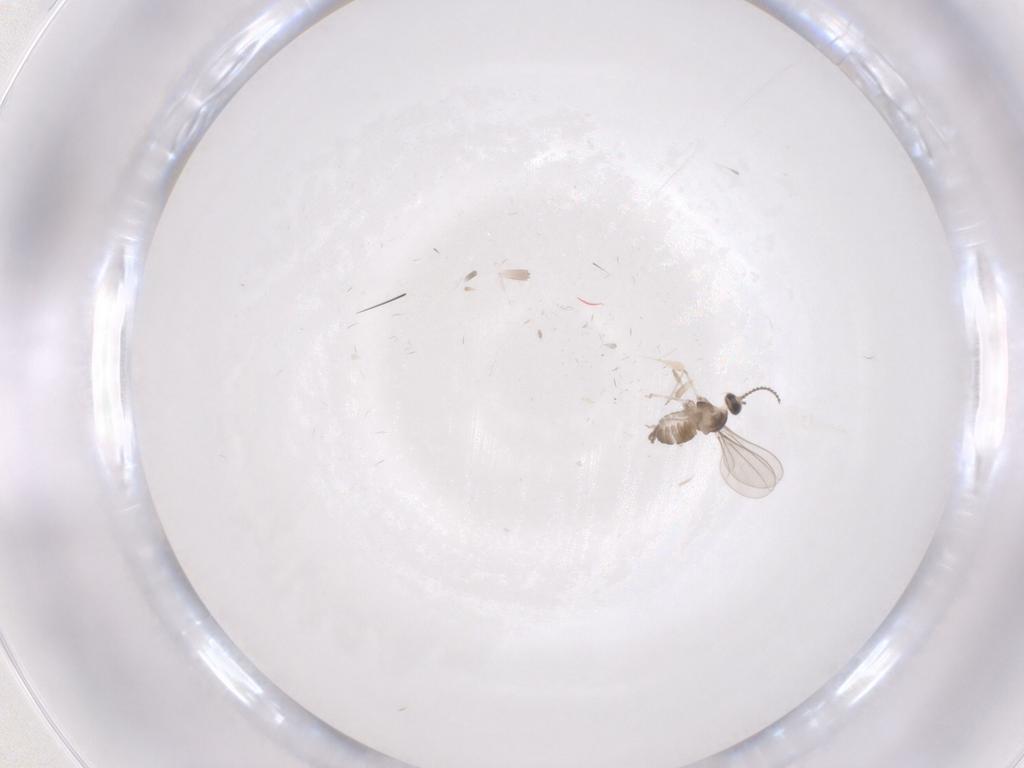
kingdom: Animalia
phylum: Arthropoda
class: Insecta
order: Diptera
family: Cecidomyiidae
